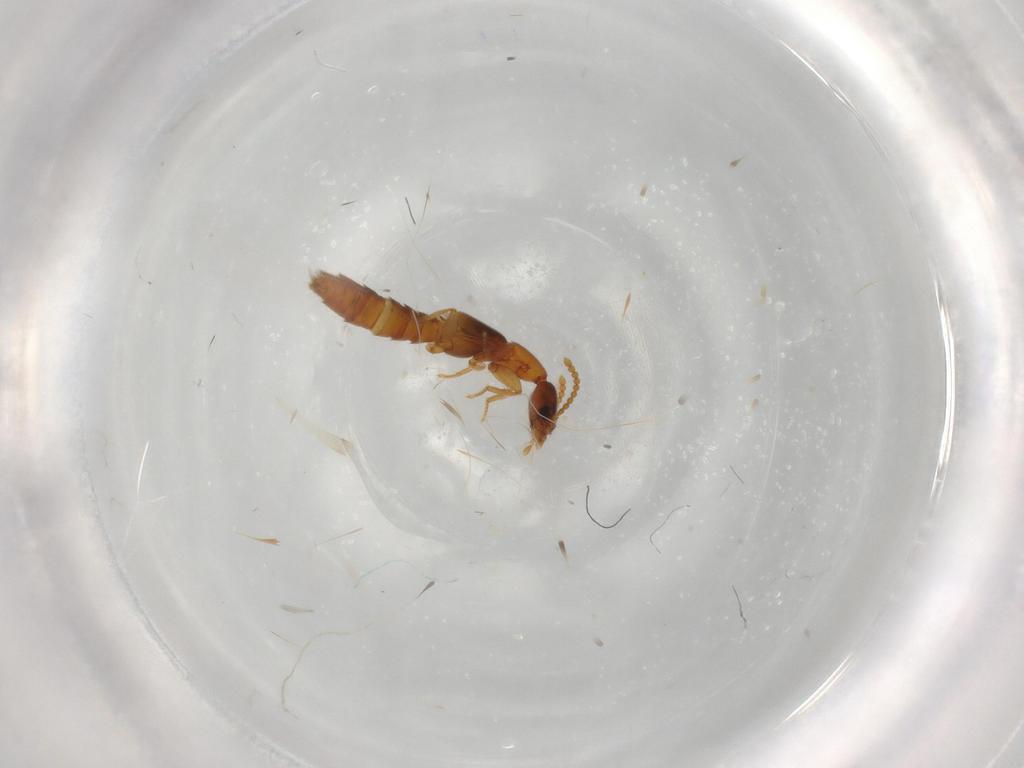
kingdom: Animalia
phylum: Arthropoda
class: Insecta
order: Coleoptera
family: Staphylinidae
